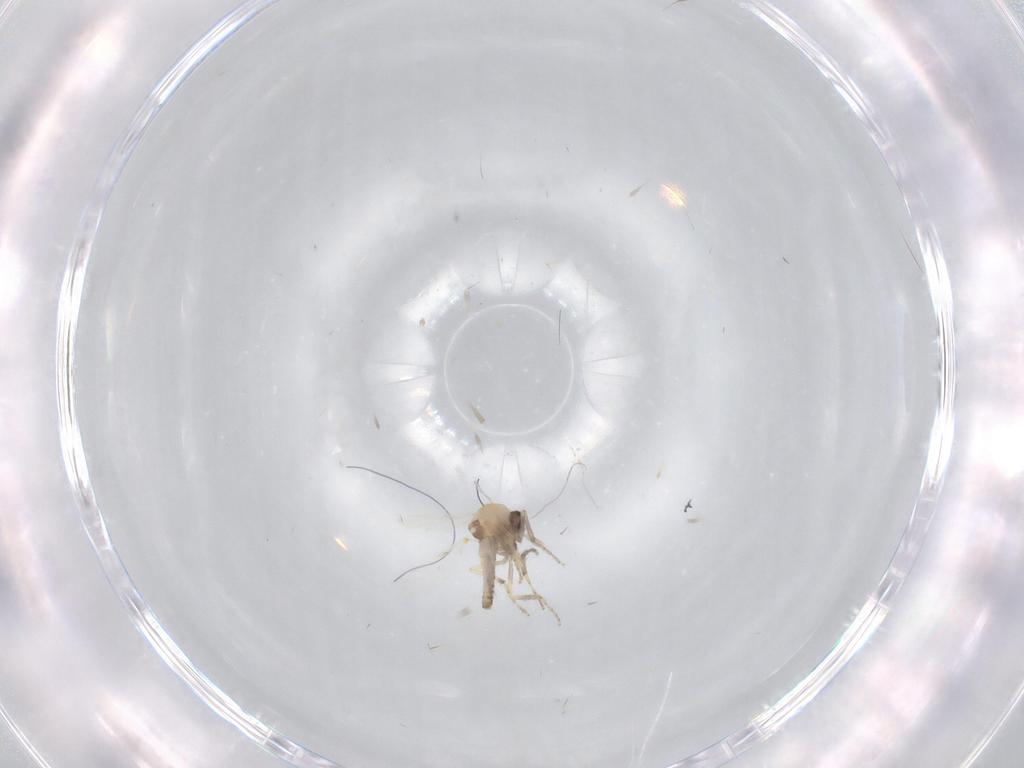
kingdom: Animalia
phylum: Arthropoda
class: Insecta
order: Diptera
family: Ceratopogonidae
